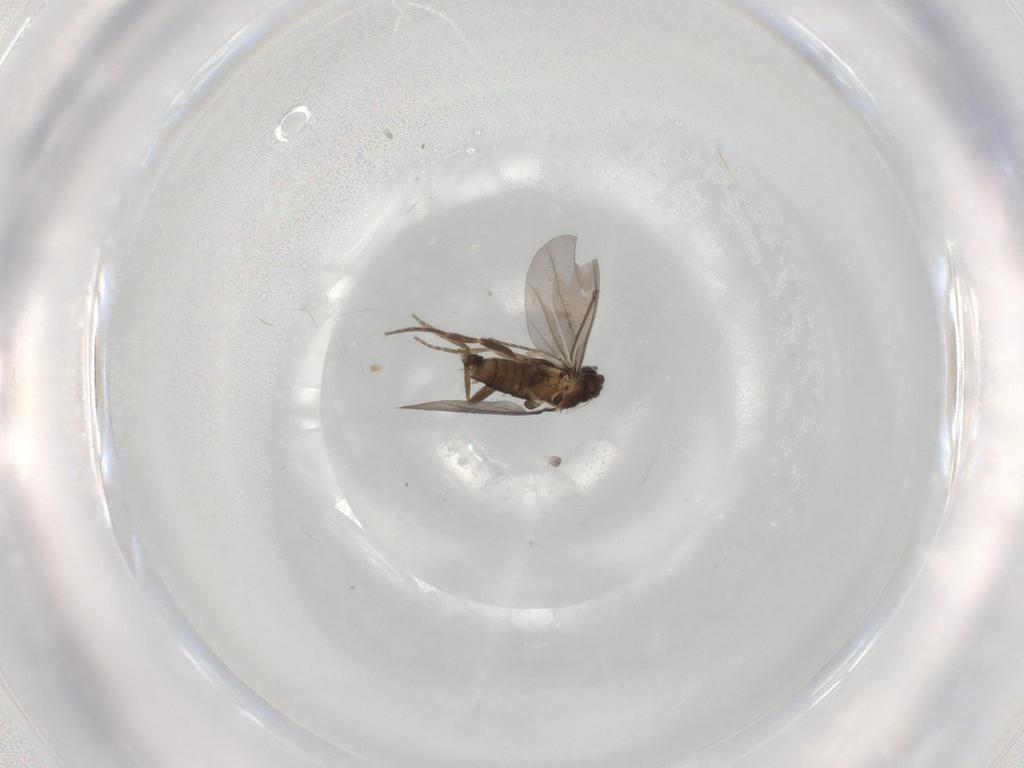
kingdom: Animalia
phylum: Arthropoda
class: Insecta
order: Diptera
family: Phoridae
